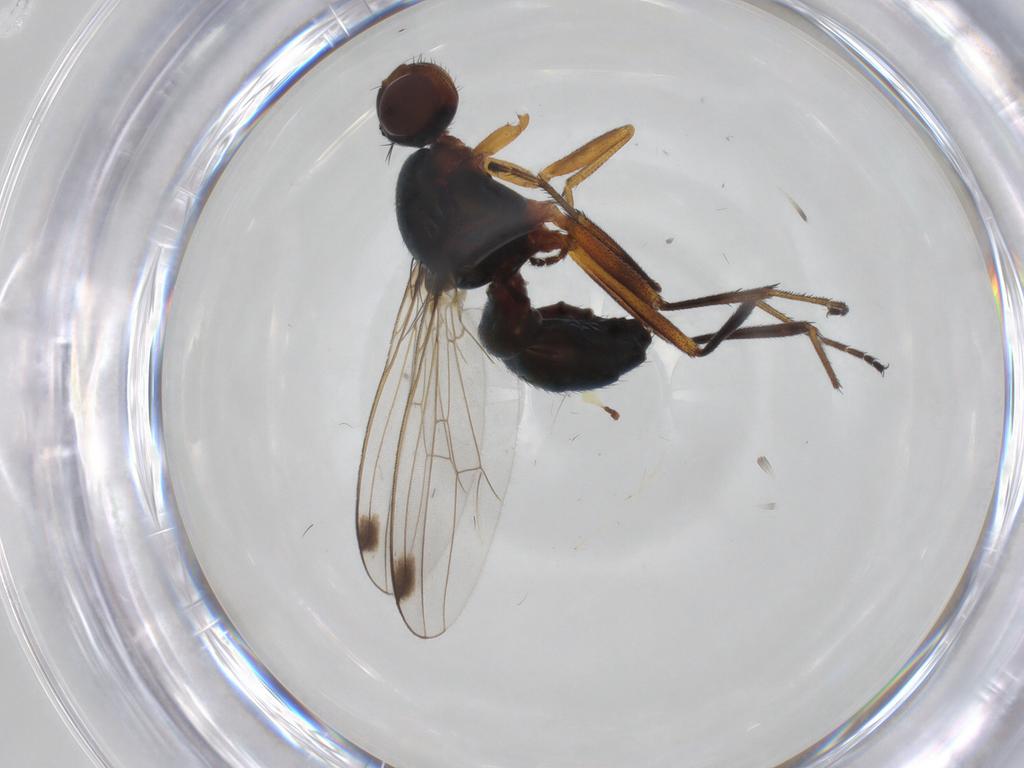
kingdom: Animalia
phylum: Arthropoda
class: Insecta
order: Diptera
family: Sepsidae
